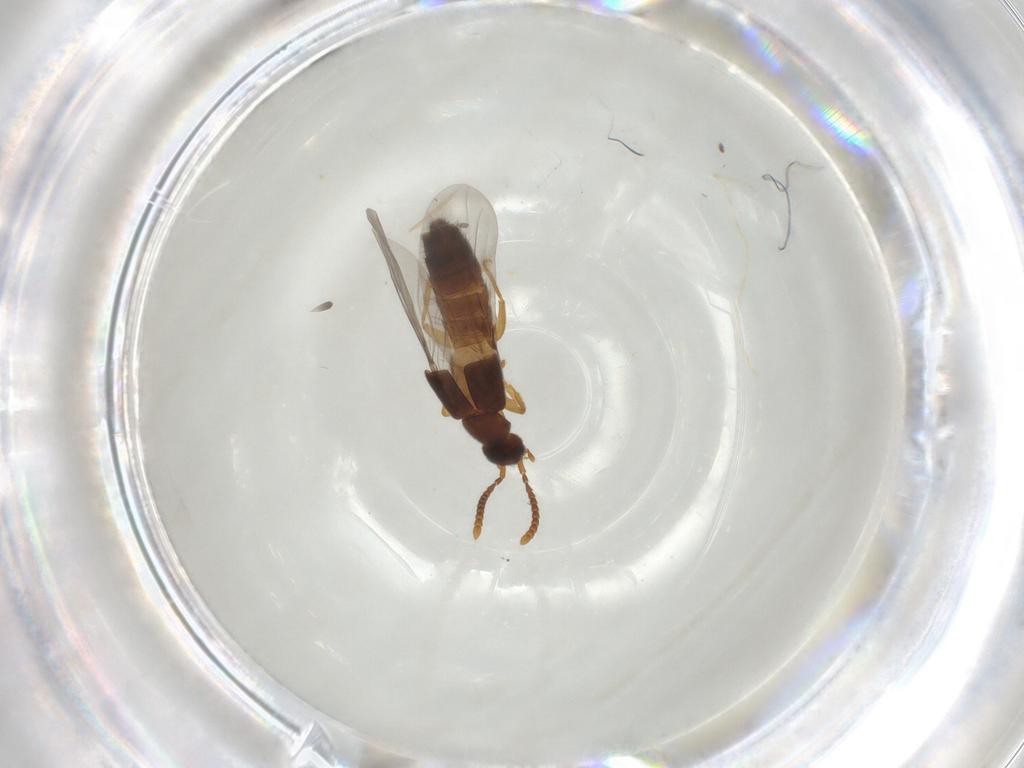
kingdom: Animalia
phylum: Arthropoda
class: Insecta
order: Coleoptera
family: Staphylinidae
